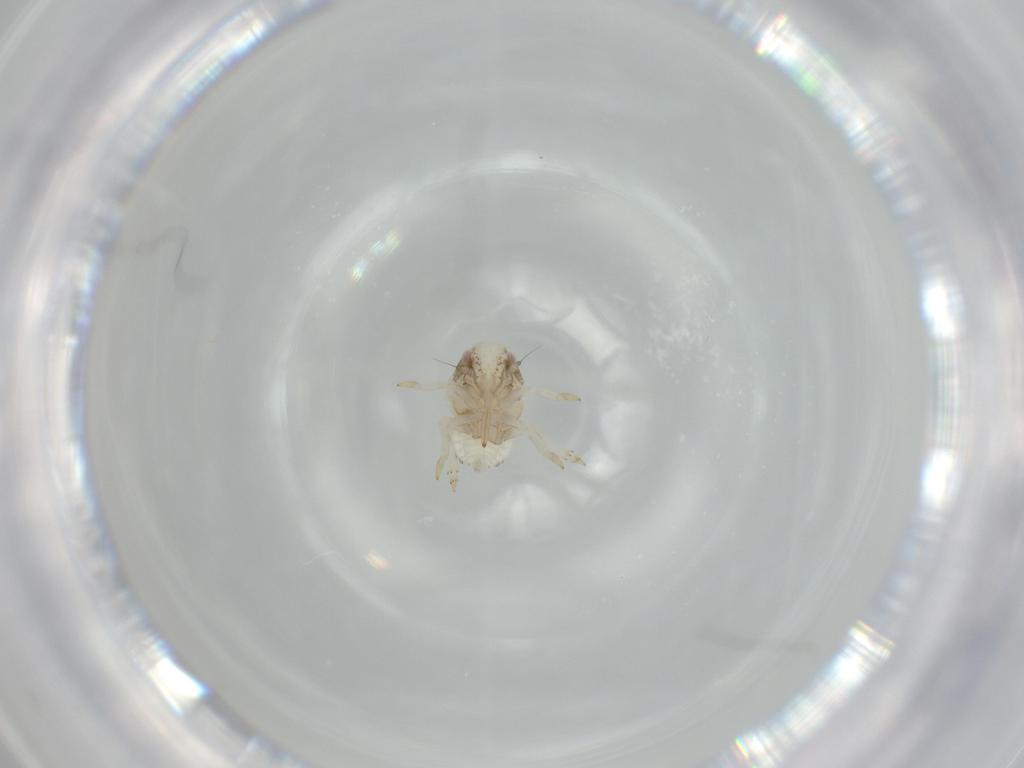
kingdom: Animalia
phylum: Arthropoda
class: Insecta
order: Hemiptera
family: Acanaloniidae
